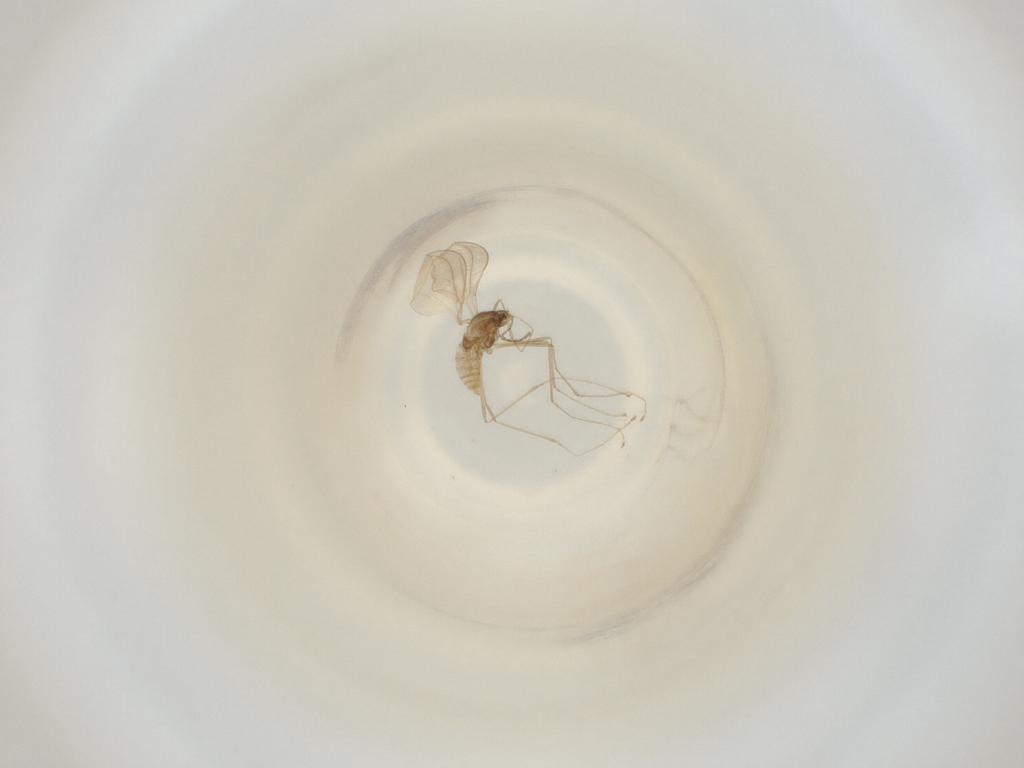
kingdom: Animalia
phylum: Arthropoda
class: Insecta
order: Diptera
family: Cecidomyiidae
